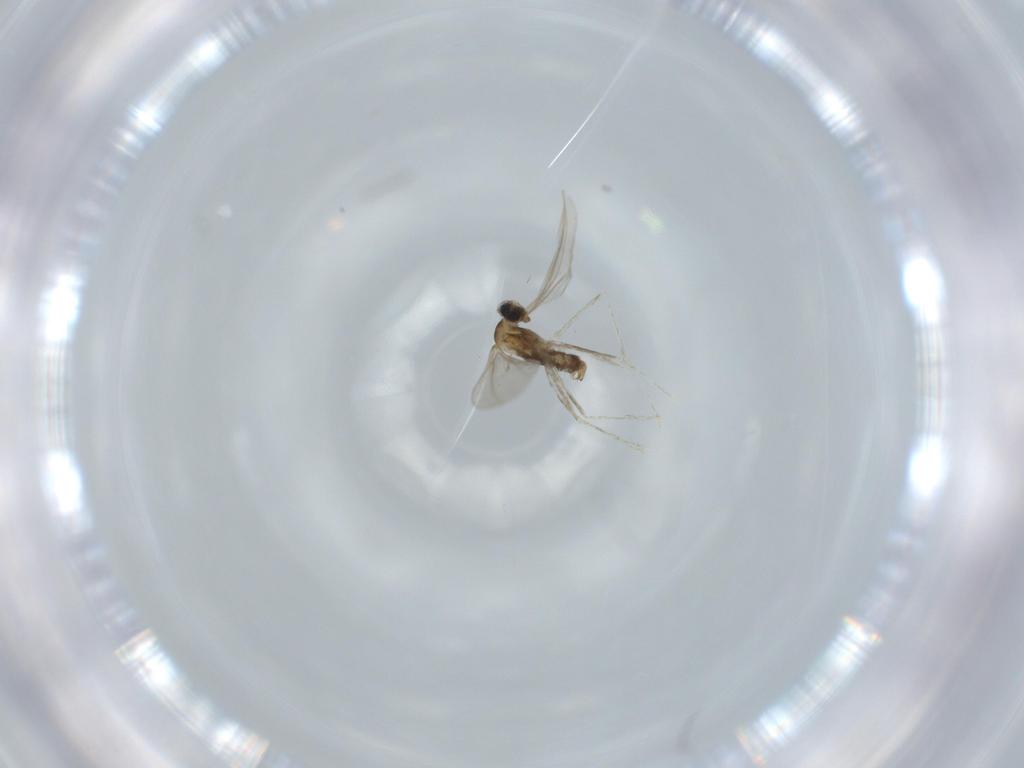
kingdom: Animalia
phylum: Arthropoda
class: Insecta
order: Diptera
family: Cecidomyiidae
